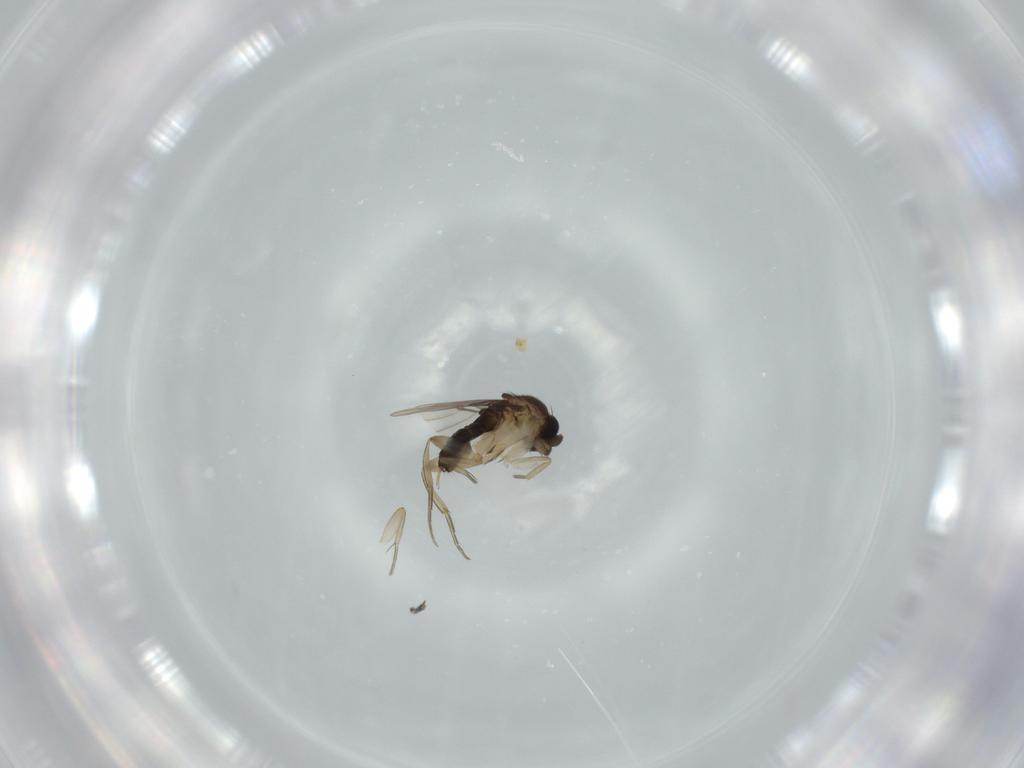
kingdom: Animalia
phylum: Arthropoda
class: Insecta
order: Diptera
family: Phoridae
